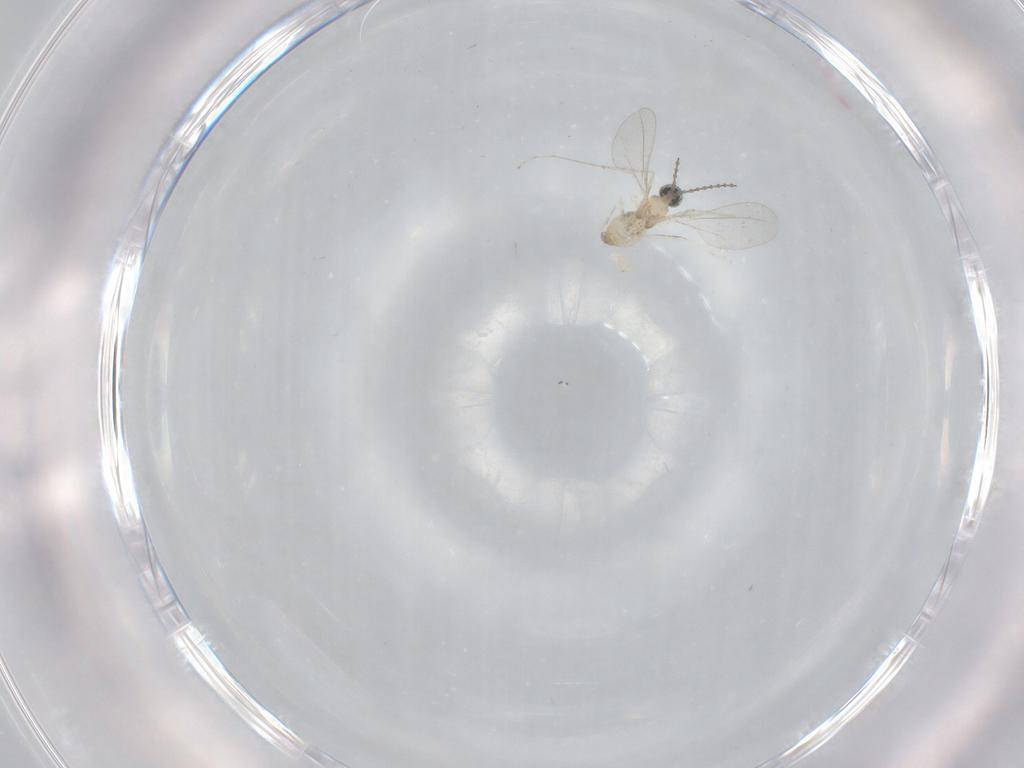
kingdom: Animalia
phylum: Arthropoda
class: Insecta
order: Diptera
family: Cecidomyiidae
